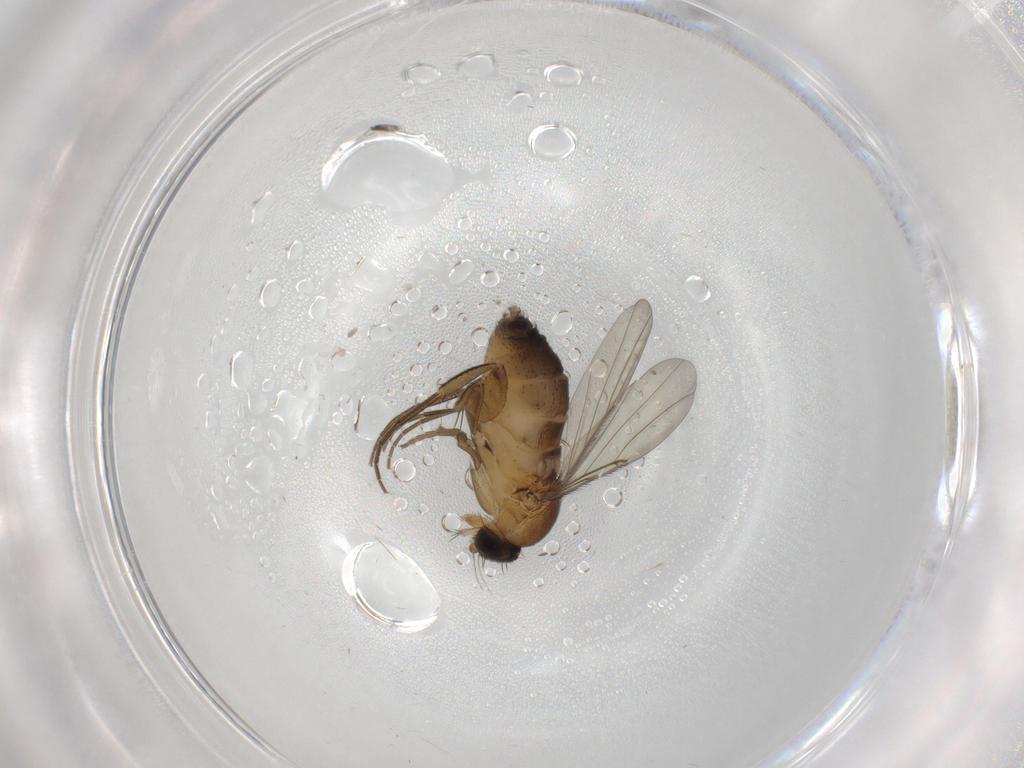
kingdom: Animalia
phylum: Arthropoda
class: Insecta
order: Diptera
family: Phoridae
